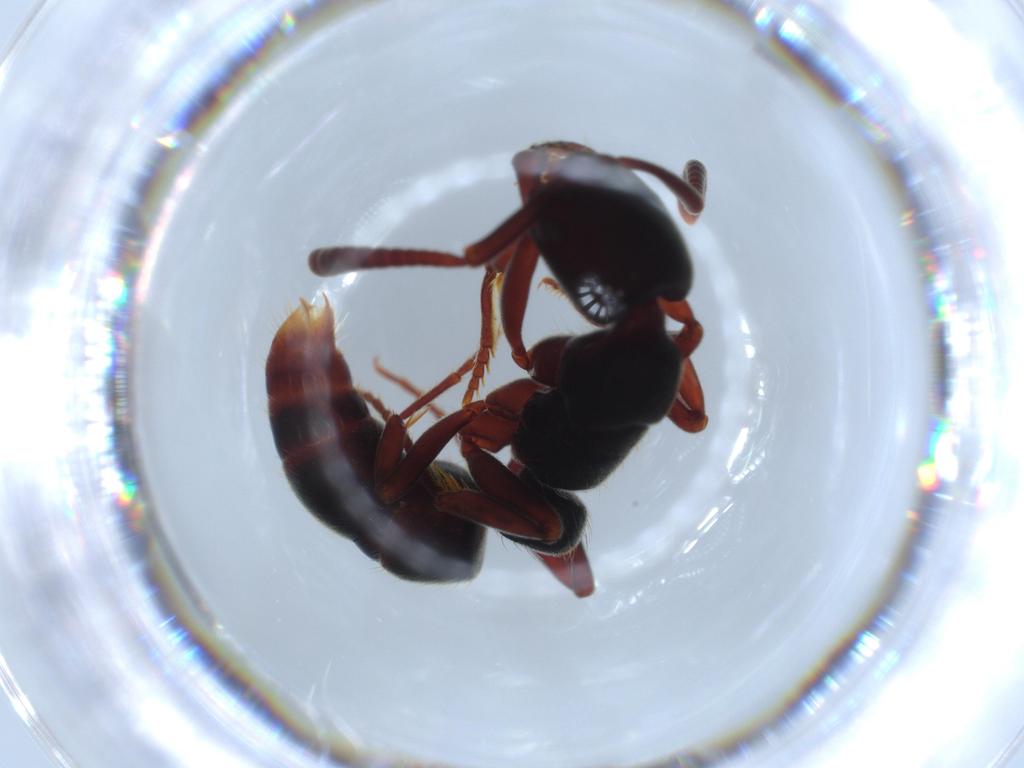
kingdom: Animalia
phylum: Arthropoda
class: Insecta
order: Hymenoptera
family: Formicidae
